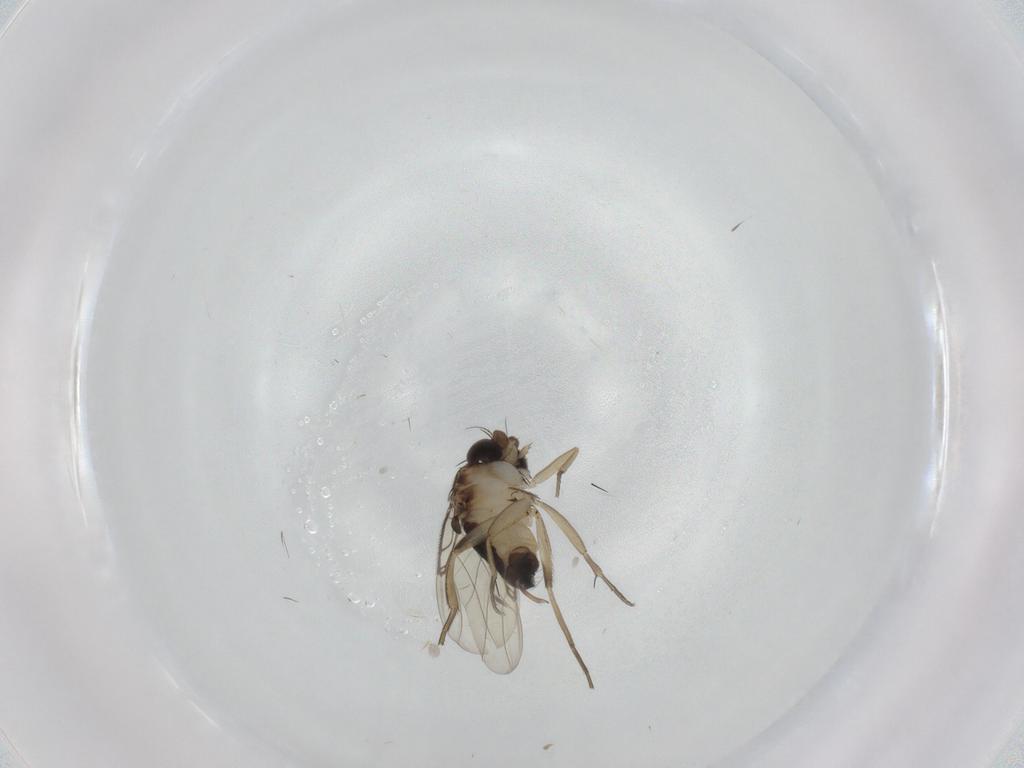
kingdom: Animalia
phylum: Arthropoda
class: Insecta
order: Diptera
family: Phoridae
